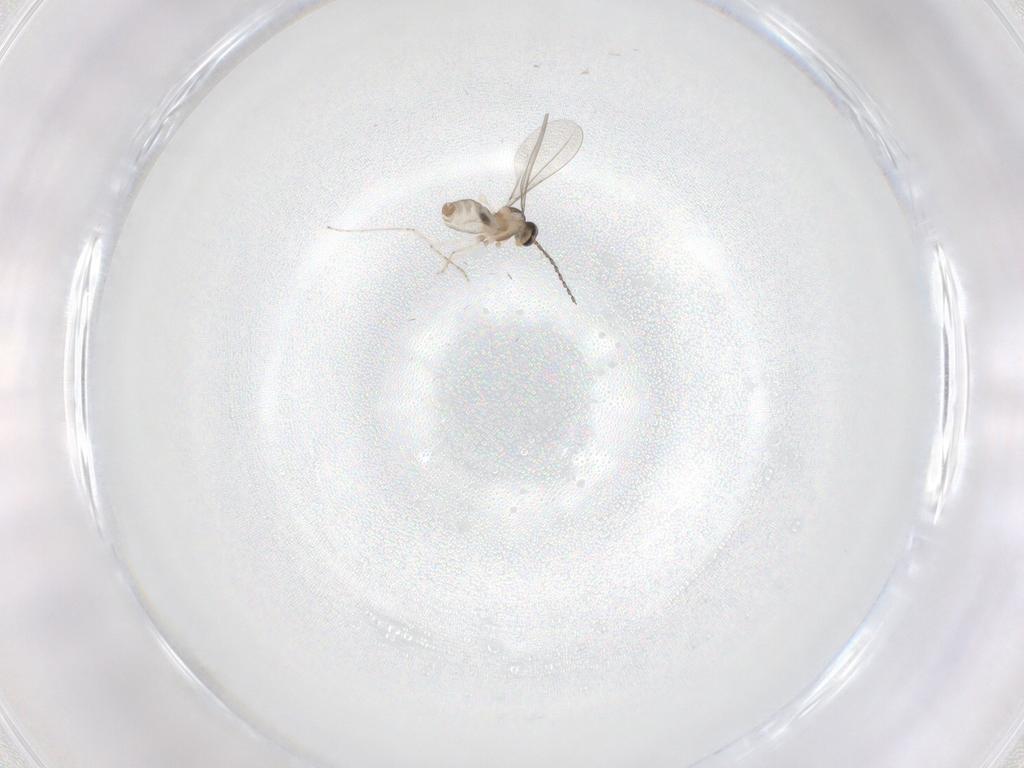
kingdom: Animalia
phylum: Arthropoda
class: Insecta
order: Diptera
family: Cecidomyiidae
